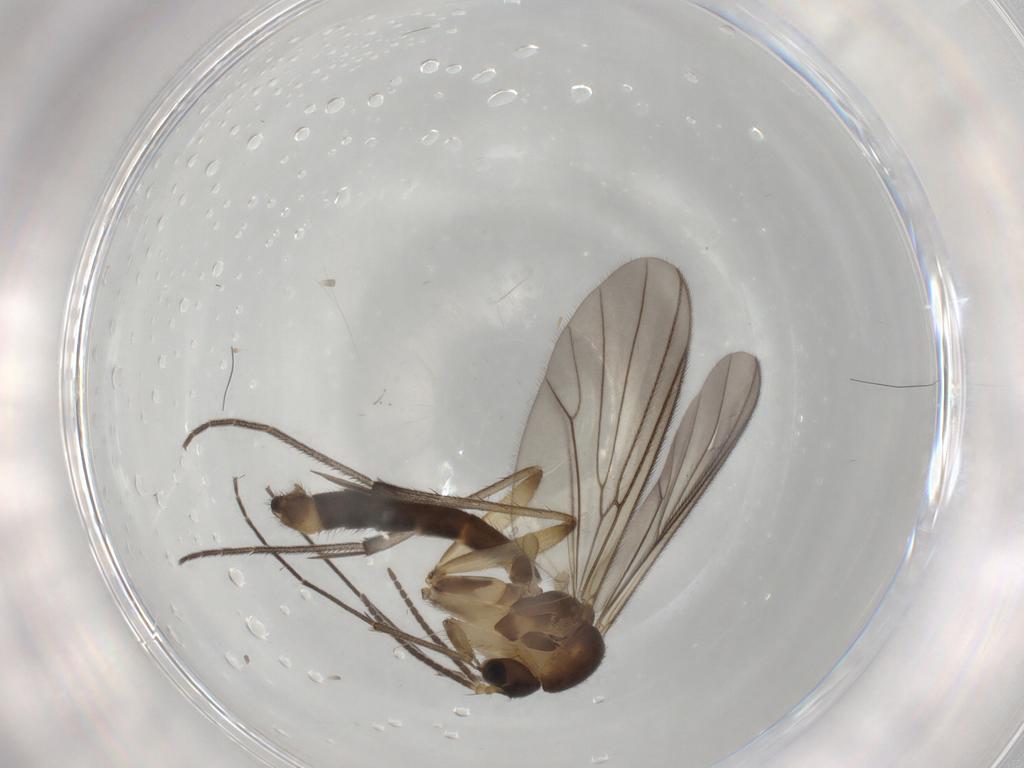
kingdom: Animalia
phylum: Arthropoda
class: Insecta
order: Diptera
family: Mycetophilidae
